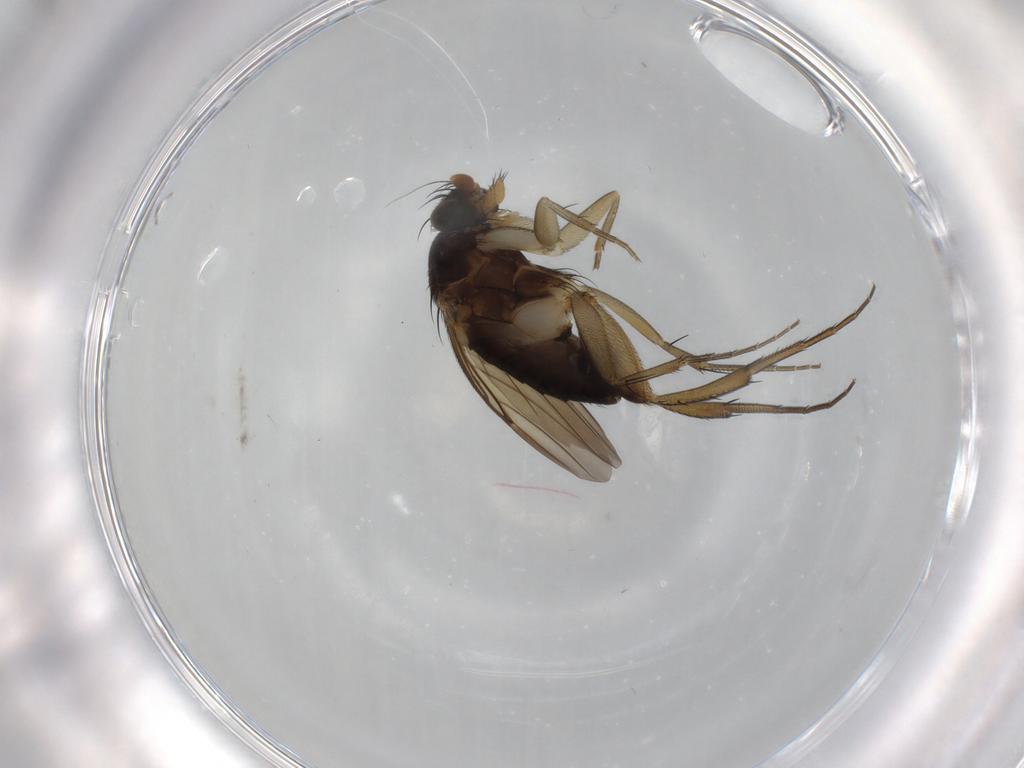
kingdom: Animalia
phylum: Arthropoda
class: Insecta
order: Diptera
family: Phoridae
